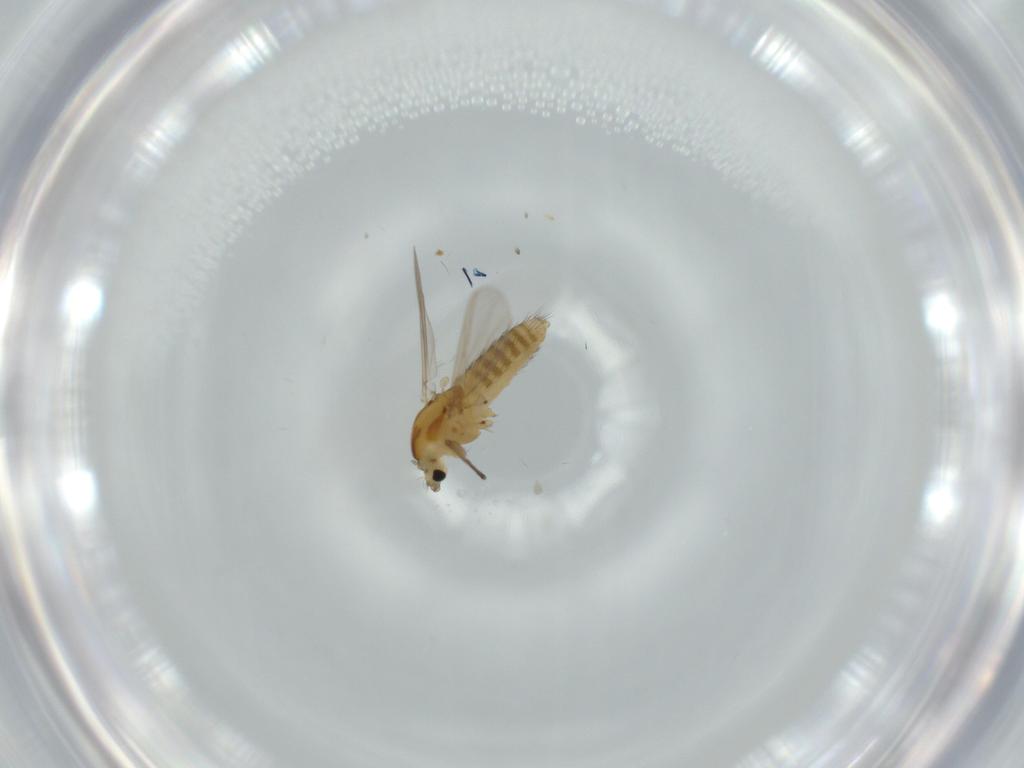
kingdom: Animalia
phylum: Arthropoda
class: Insecta
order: Diptera
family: Chironomidae
